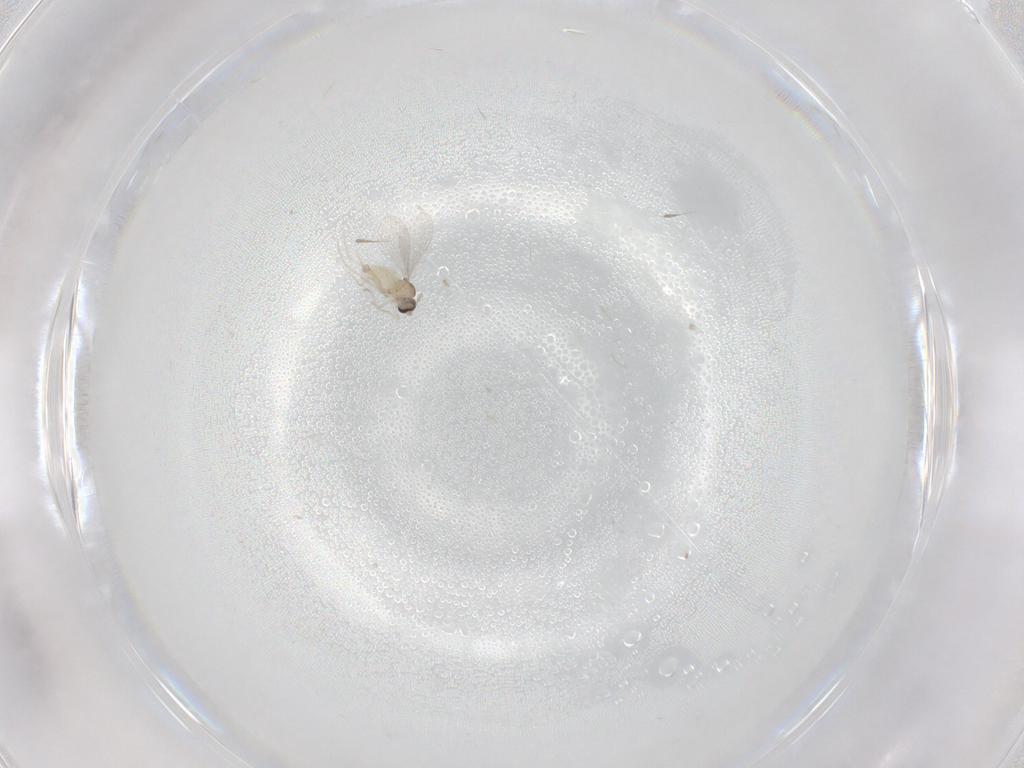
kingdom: Animalia
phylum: Arthropoda
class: Insecta
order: Diptera
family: Cecidomyiidae
